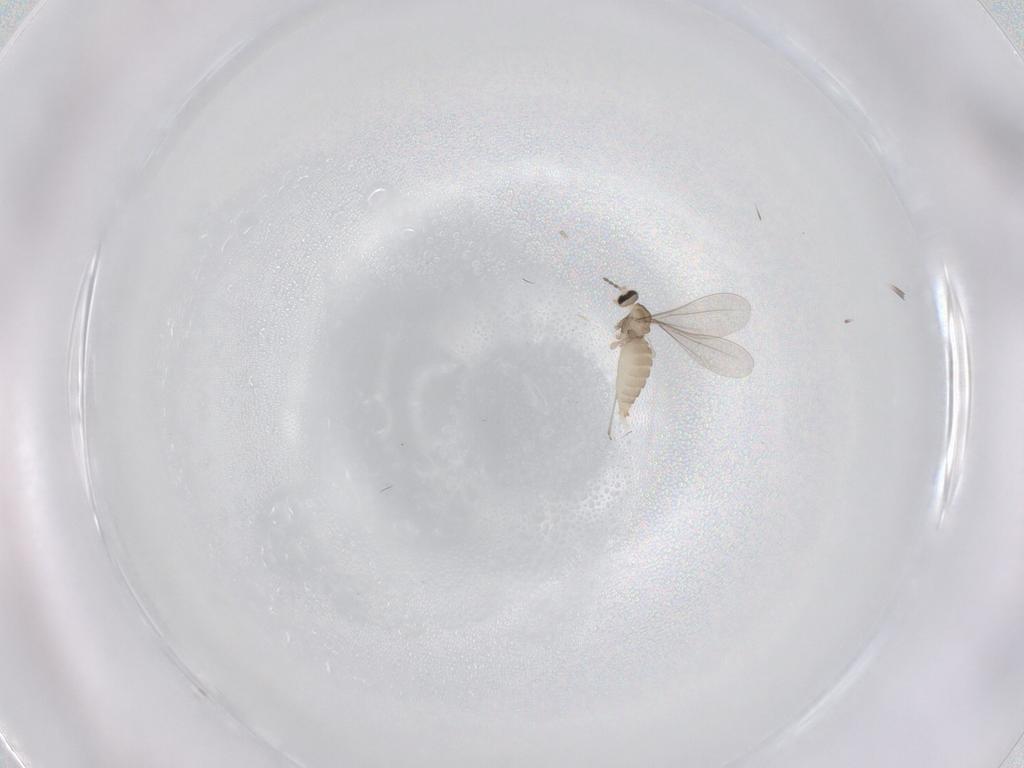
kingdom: Animalia
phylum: Arthropoda
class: Insecta
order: Diptera
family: Cecidomyiidae
